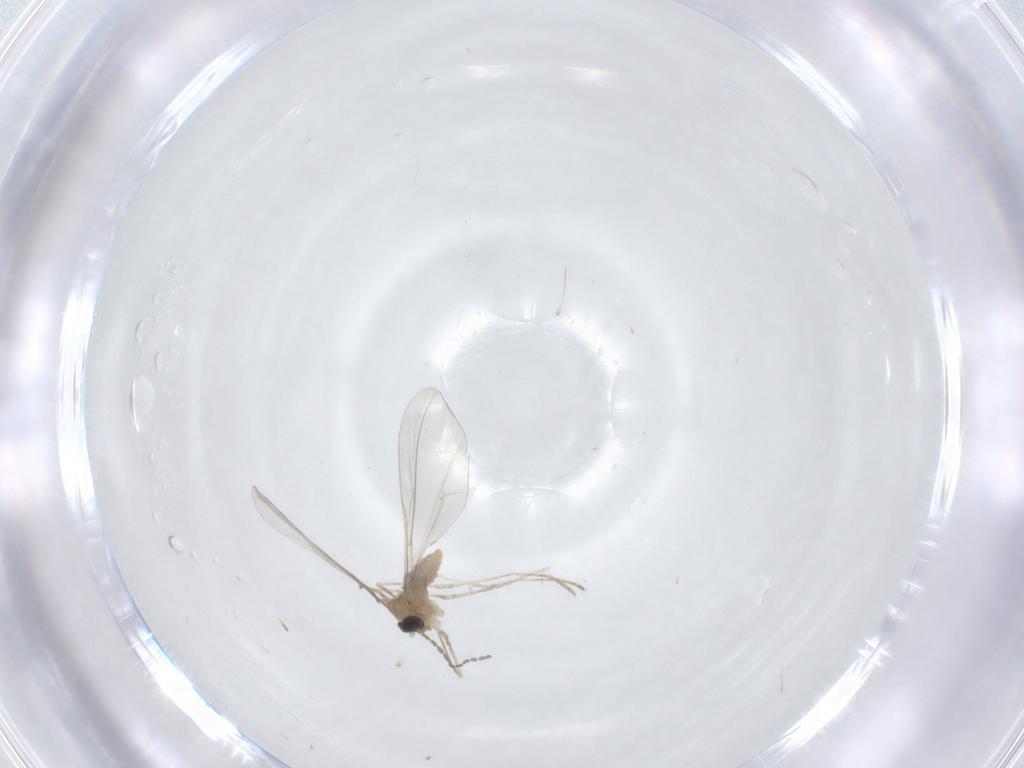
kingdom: Animalia
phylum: Arthropoda
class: Insecta
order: Diptera
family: Cecidomyiidae
